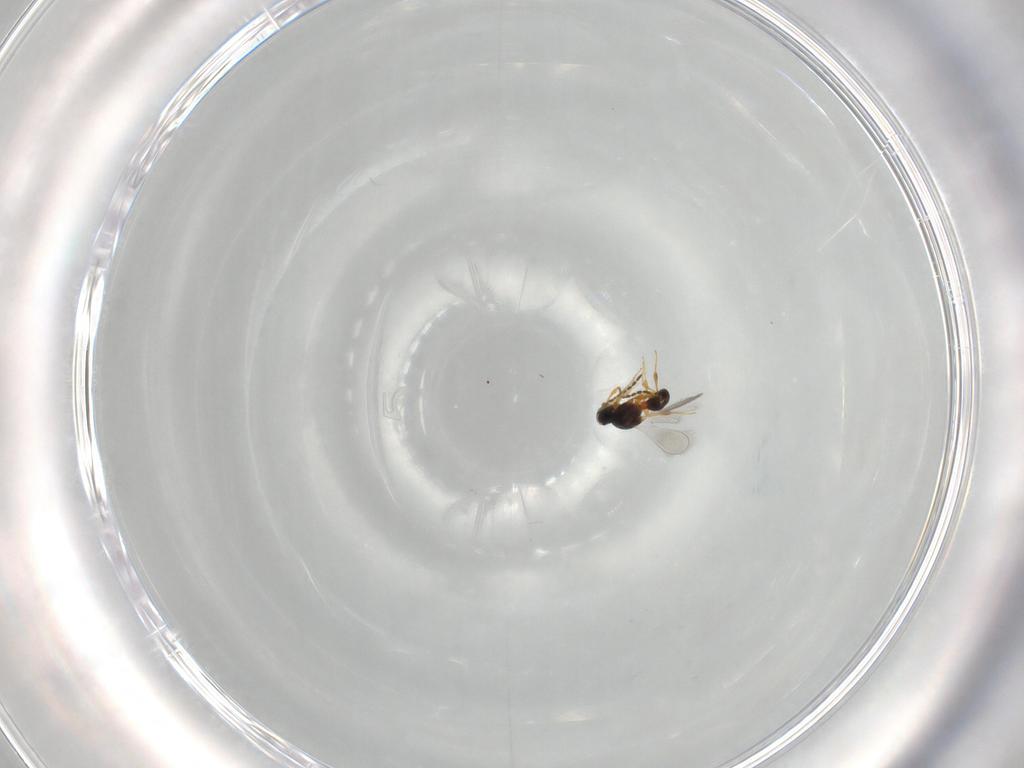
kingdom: Animalia
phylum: Arthropoda
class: Insecta
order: Hymenoptera
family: Platygastridae
